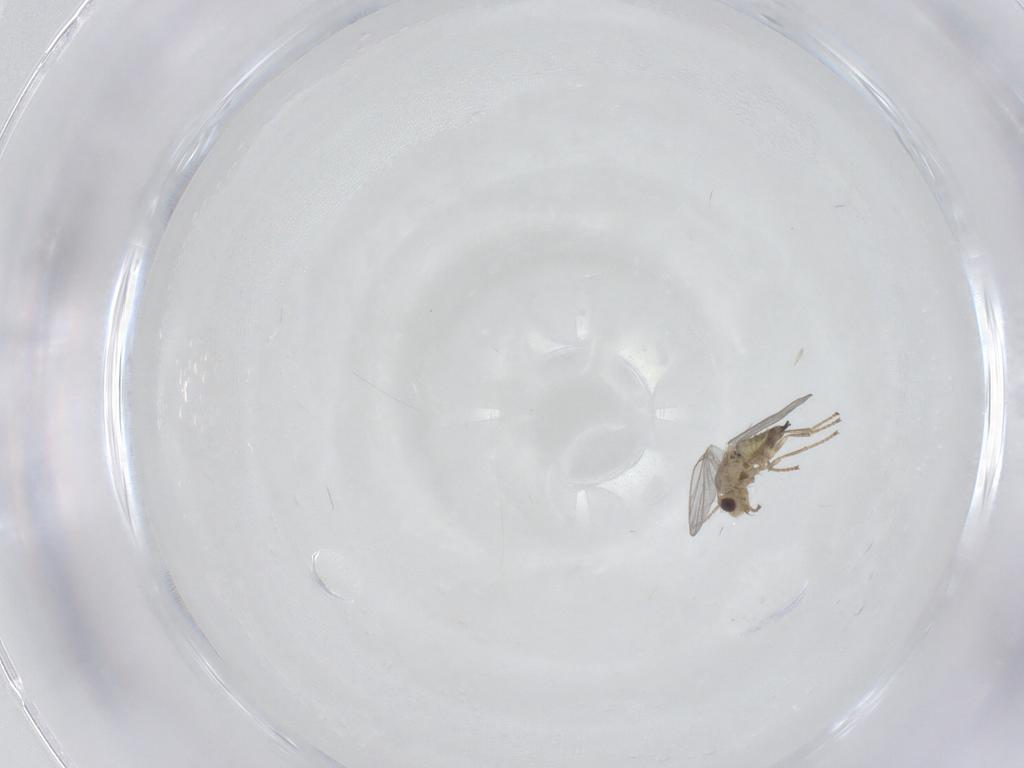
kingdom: Animalia
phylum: Arthropoda
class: Insecta
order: Diptera
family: Agromyzidae
